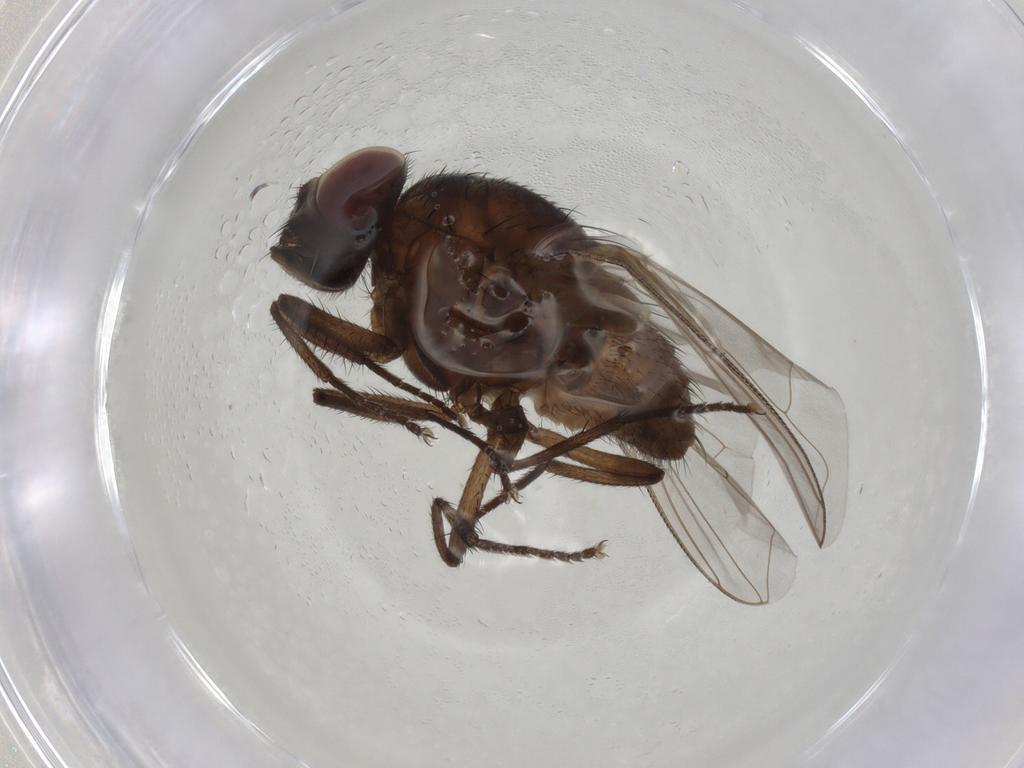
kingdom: Animalia
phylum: Arthropoda
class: Insecta
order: Diptera
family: Muscidae
